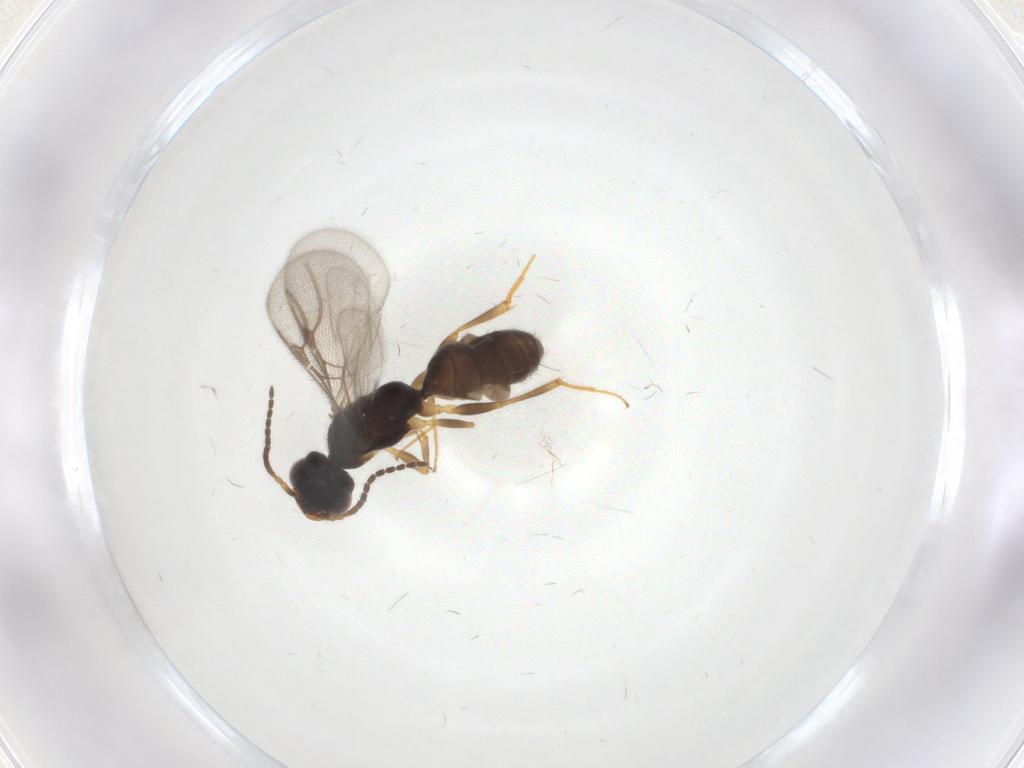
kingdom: Animalia
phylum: Arthropoda
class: Insecta
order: Hymenoptera
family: Bethylidae
